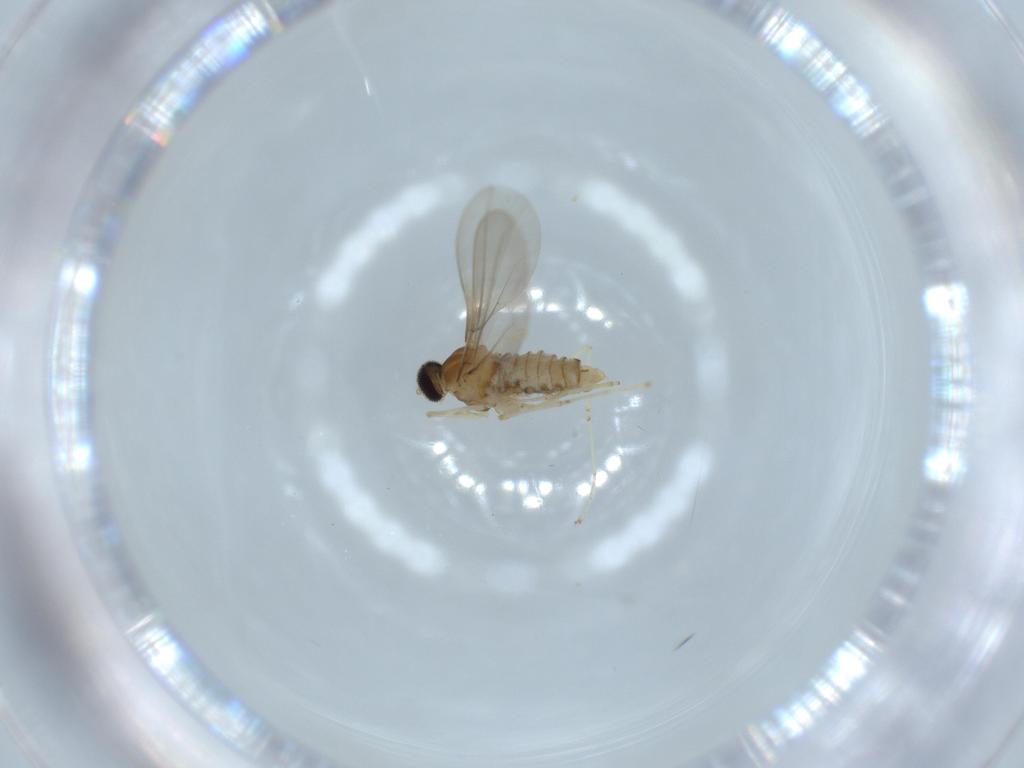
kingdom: Animalia
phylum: Arthropoda
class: Insecta
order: Diptera
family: Cecidomyiidae
